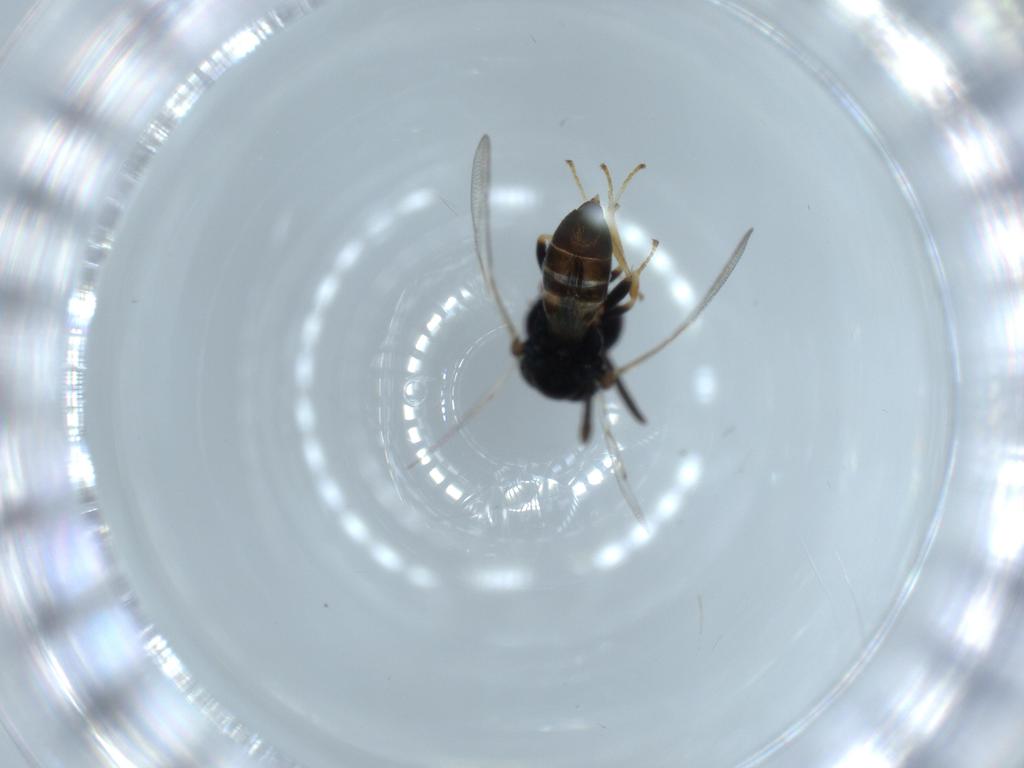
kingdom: Animalia
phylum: Arthropoda
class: Insecta
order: Hymenoptera
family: Pteromalidae
